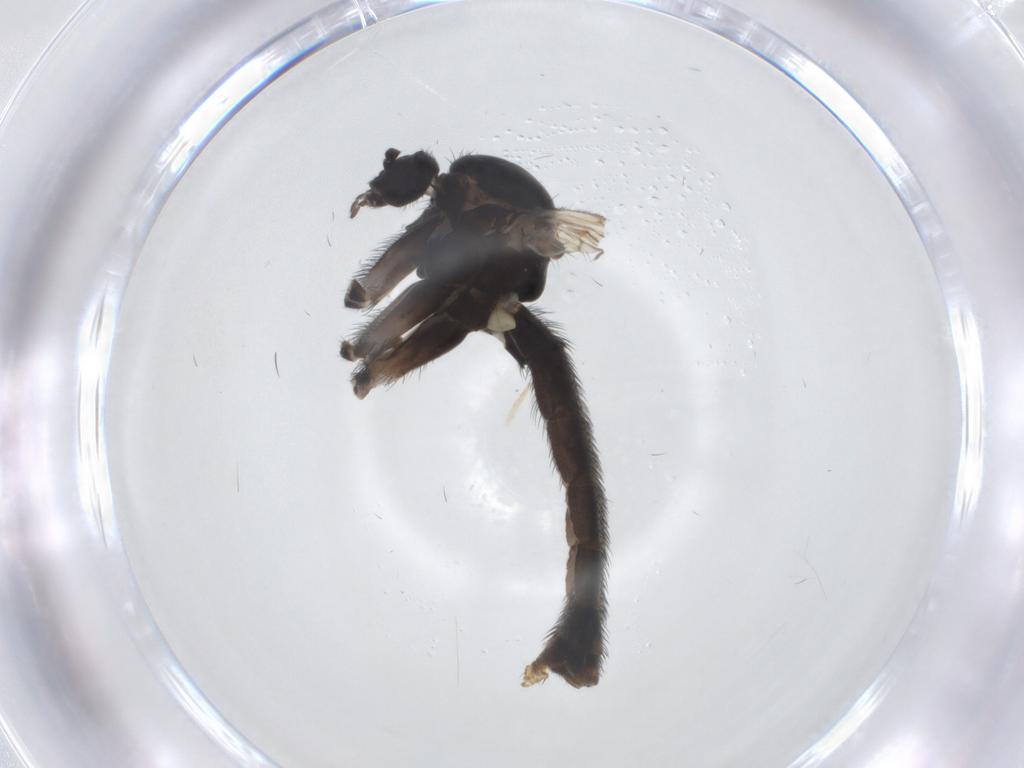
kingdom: Animalia
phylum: Arthropoda
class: Insecta
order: Diptera
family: Keroplatidae
